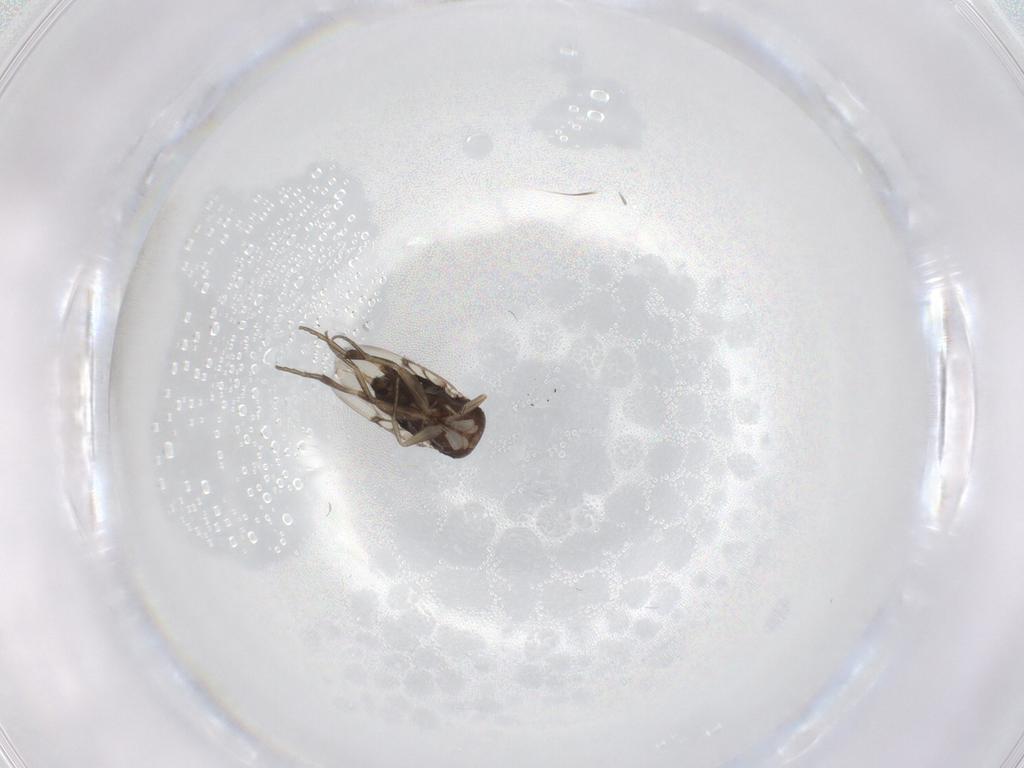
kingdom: Animalia
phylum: Arthropoda
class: Insecta
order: Diptera
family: Phoridae
